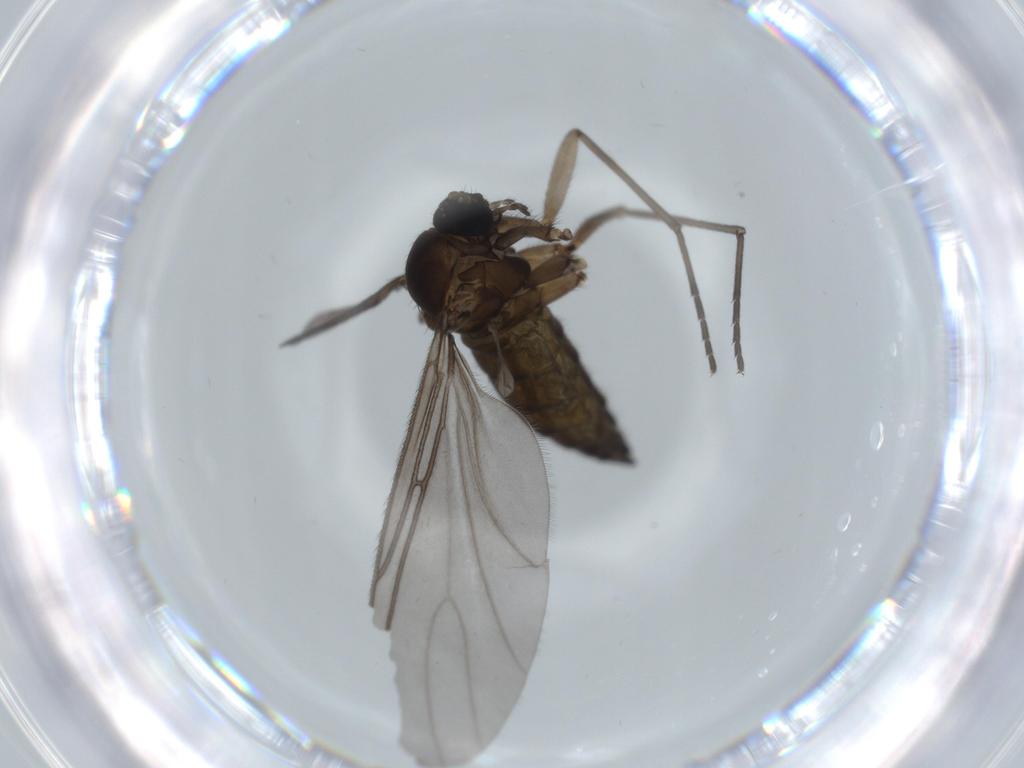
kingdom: Animalia
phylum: Arthropoda
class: Insecta
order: Diptera
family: Sciaridae
